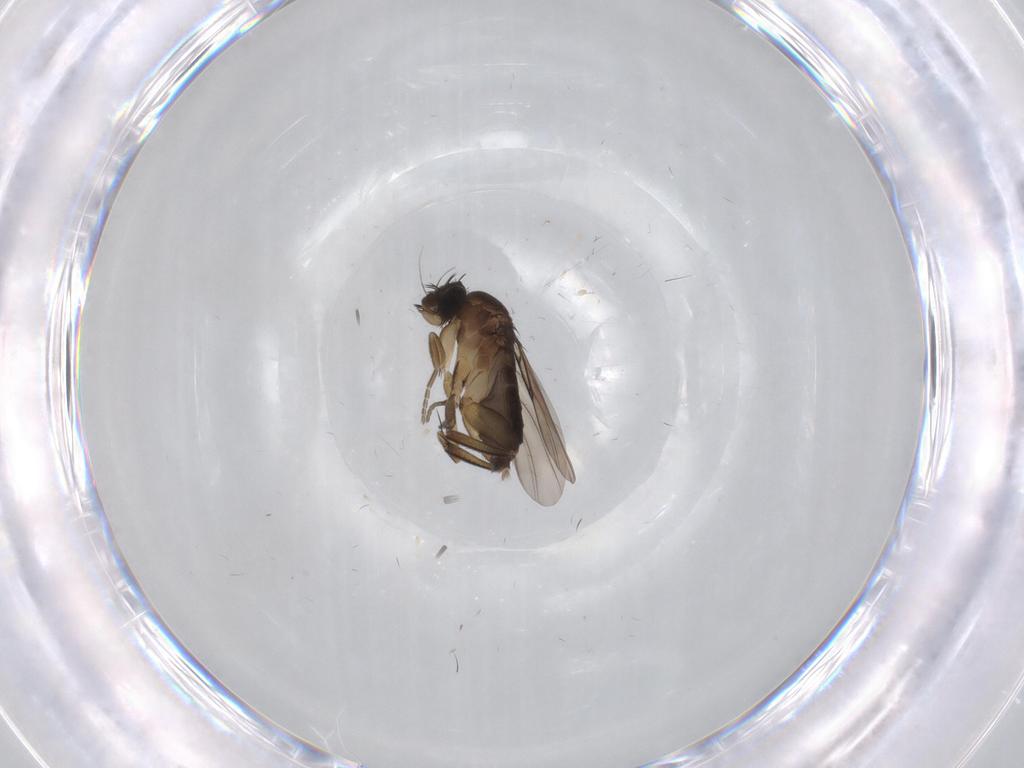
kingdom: Animalia
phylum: Arthropoda
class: Insecta
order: Diptera
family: Phoridae
